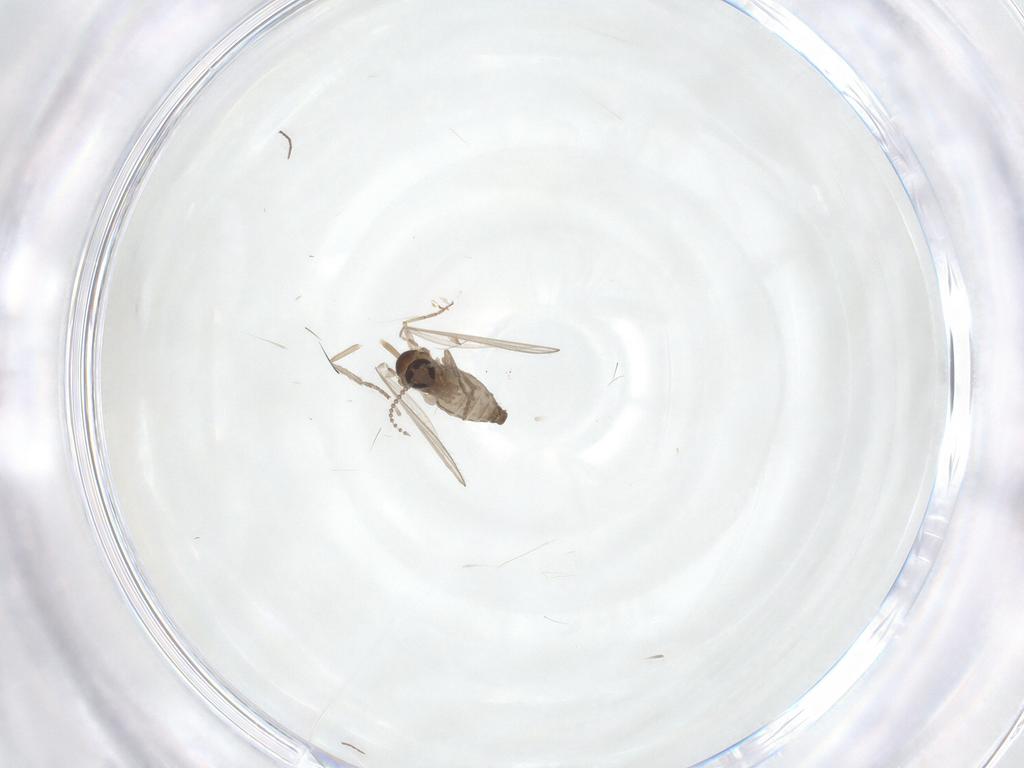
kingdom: Animalia
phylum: Arthropoda
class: Insecta
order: Diptera
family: Psychodidae
